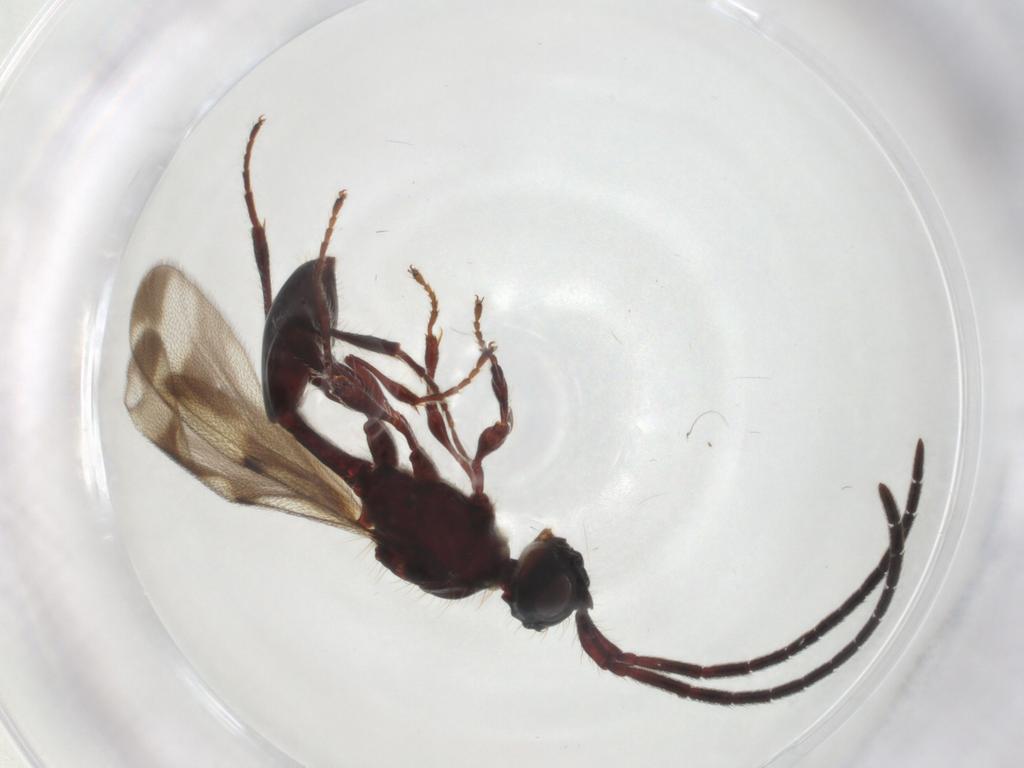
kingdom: Animalia
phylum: Arthropoda
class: Insecta
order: Hymenoptera
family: Diapriidae
